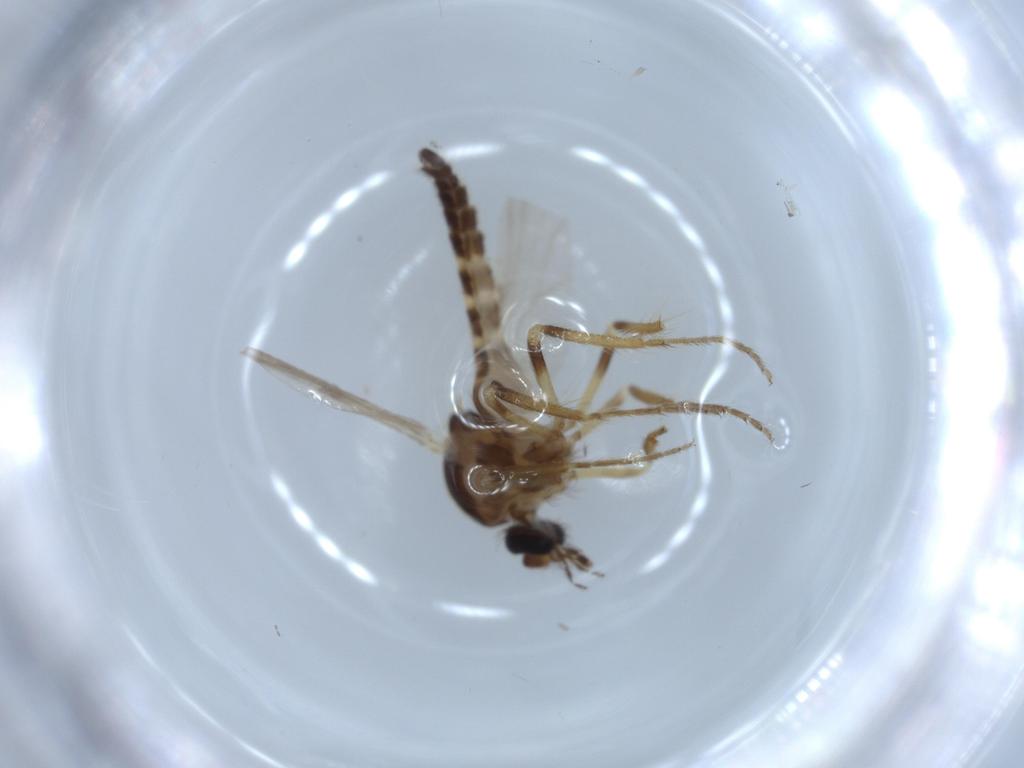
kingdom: Animalia
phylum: Arthropoda
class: Insecta
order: Diptera
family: Ceratopogonidae
